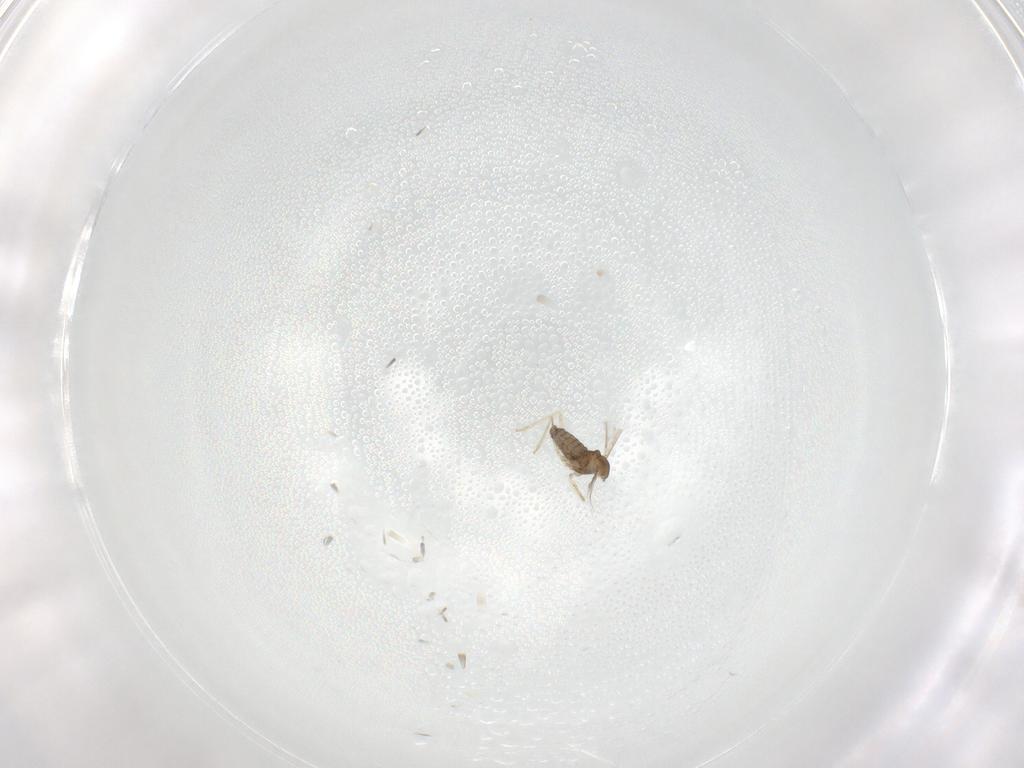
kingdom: Animalia
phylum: Arthropoda
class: Insecta
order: Diptera
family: Cecidomyiidae
